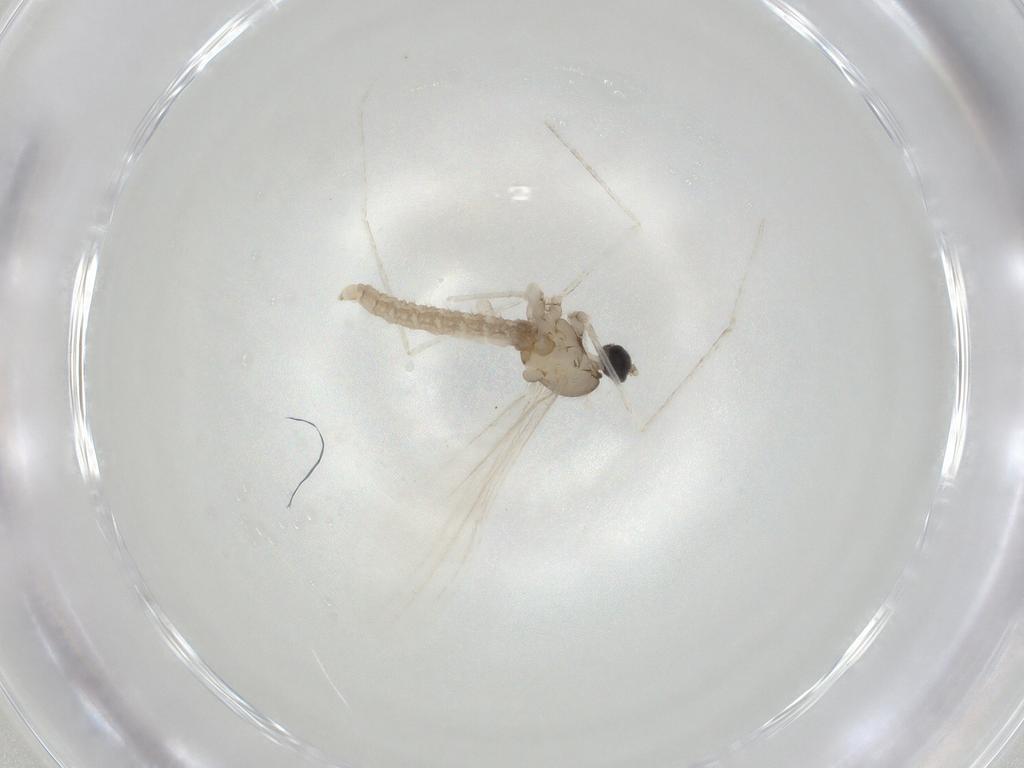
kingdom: Animalia
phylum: Arthropoda
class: Insecta
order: Diptera
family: Cecidomyiidae
